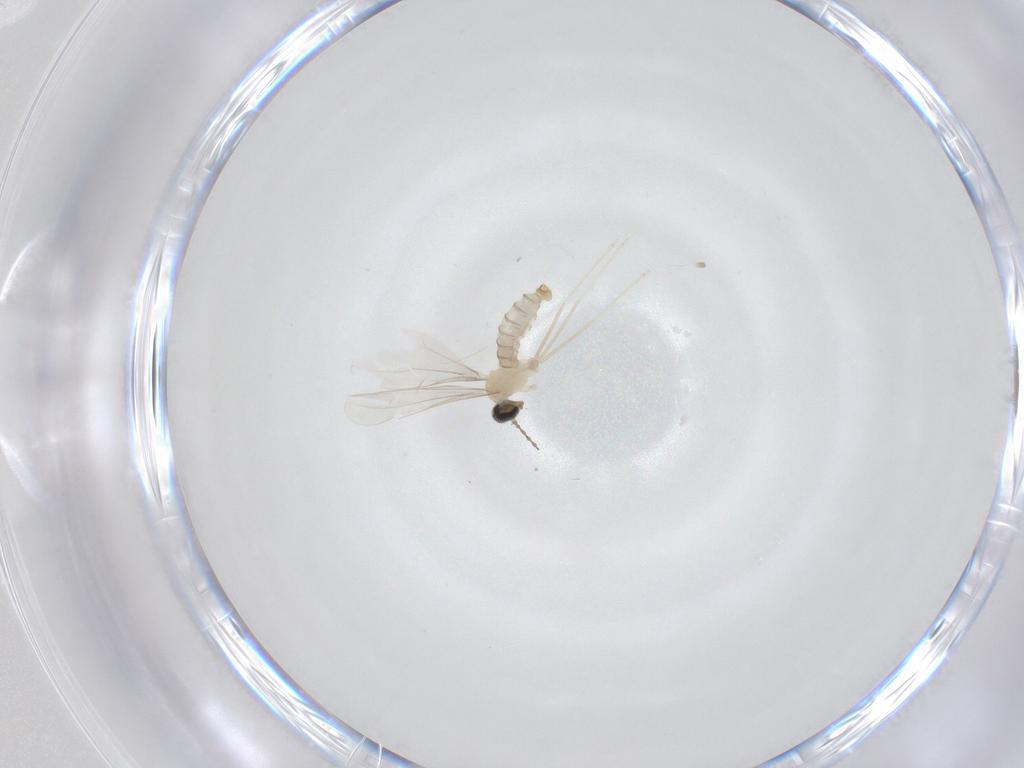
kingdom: Animalia
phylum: Arthropoda
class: Insecta
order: Diptera
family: Cecidomyiidae
